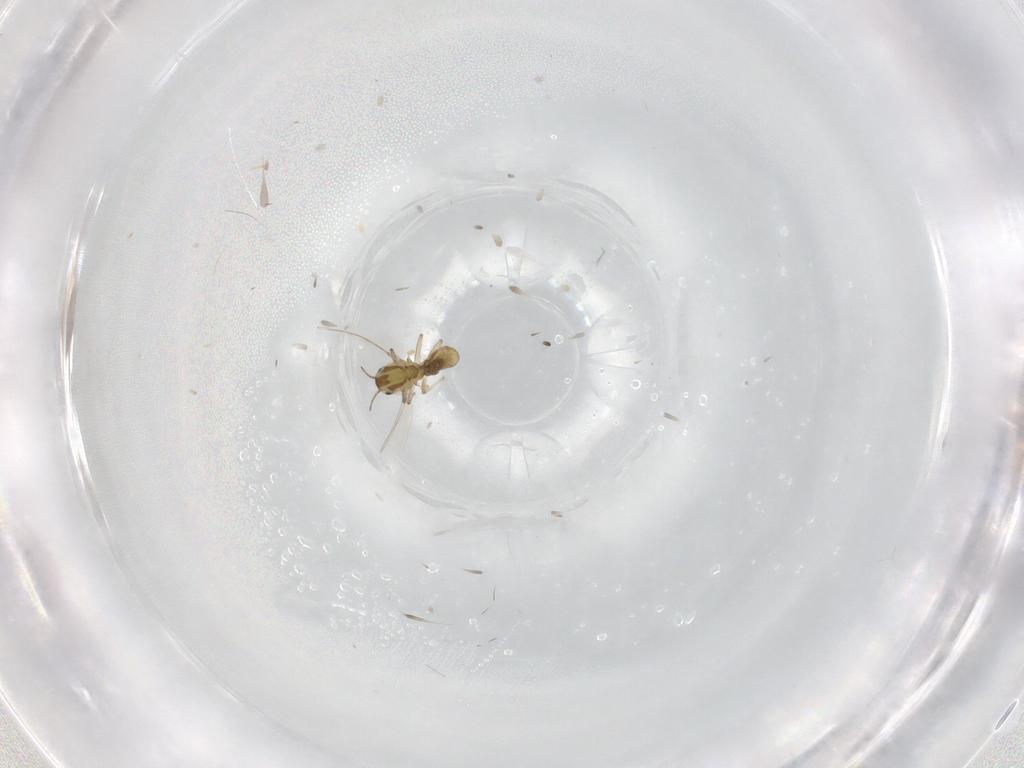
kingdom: Animalia
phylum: Arthropoda
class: Insecta
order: Diptera
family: Chironomidae
